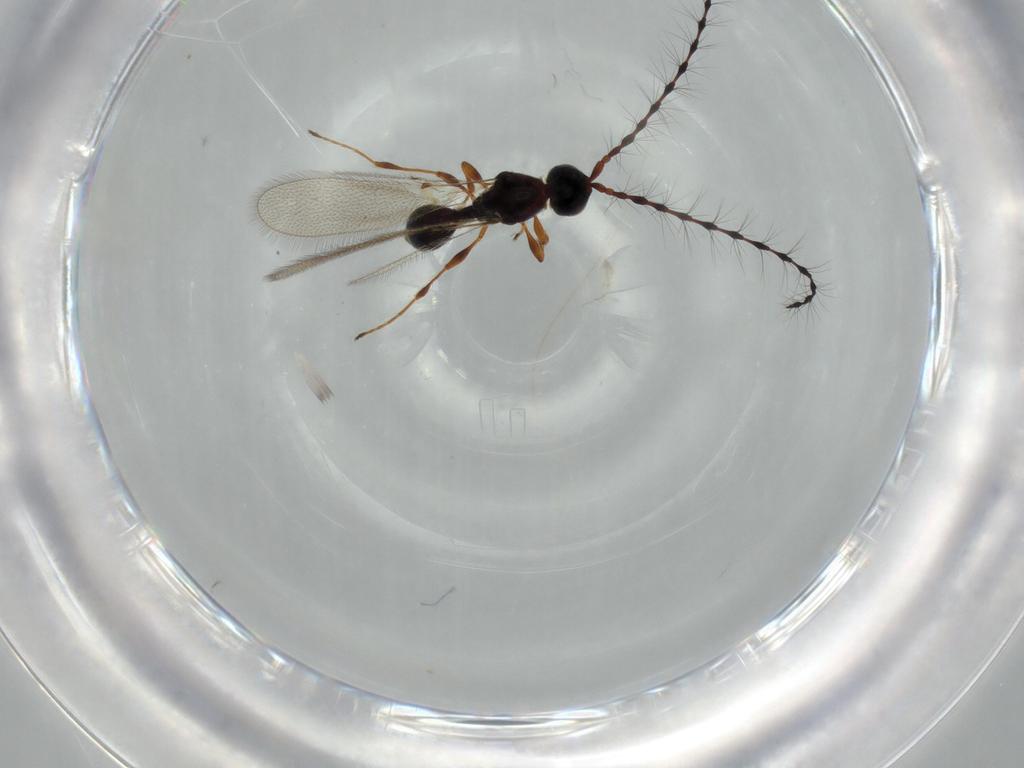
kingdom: Animalia
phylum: Arthropoda
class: Insecta
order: Hymenoptera
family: Diapriidae
